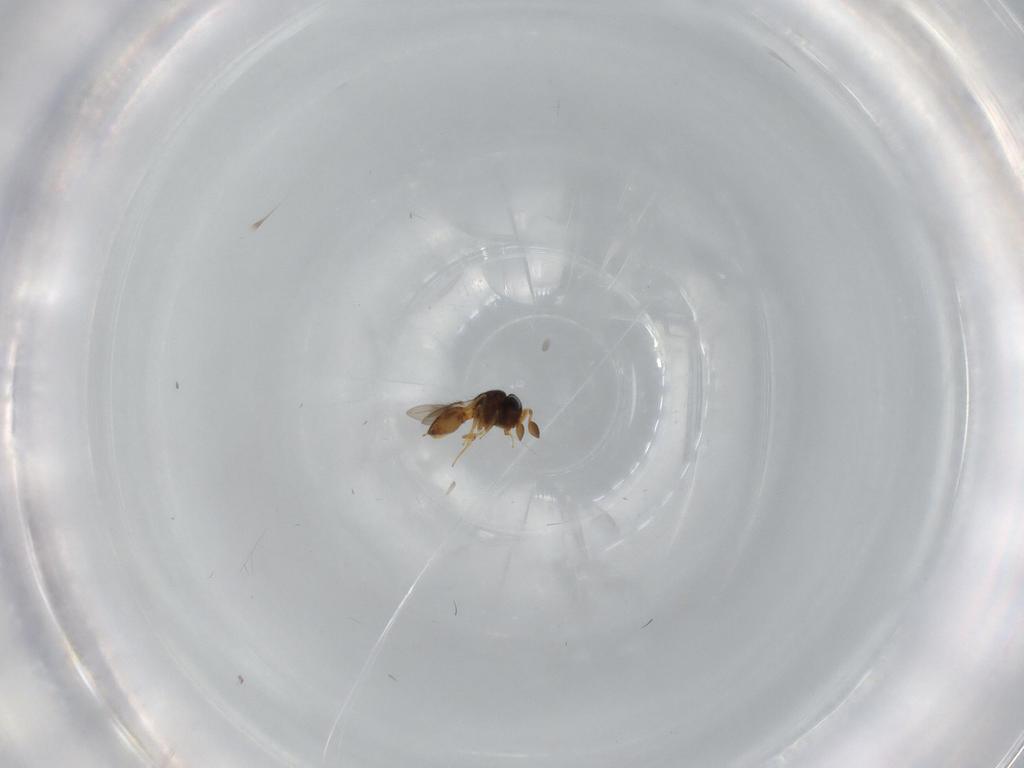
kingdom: Animalia
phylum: Arthropoda
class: Insecta
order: Hymenoptera
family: Scelionidae
